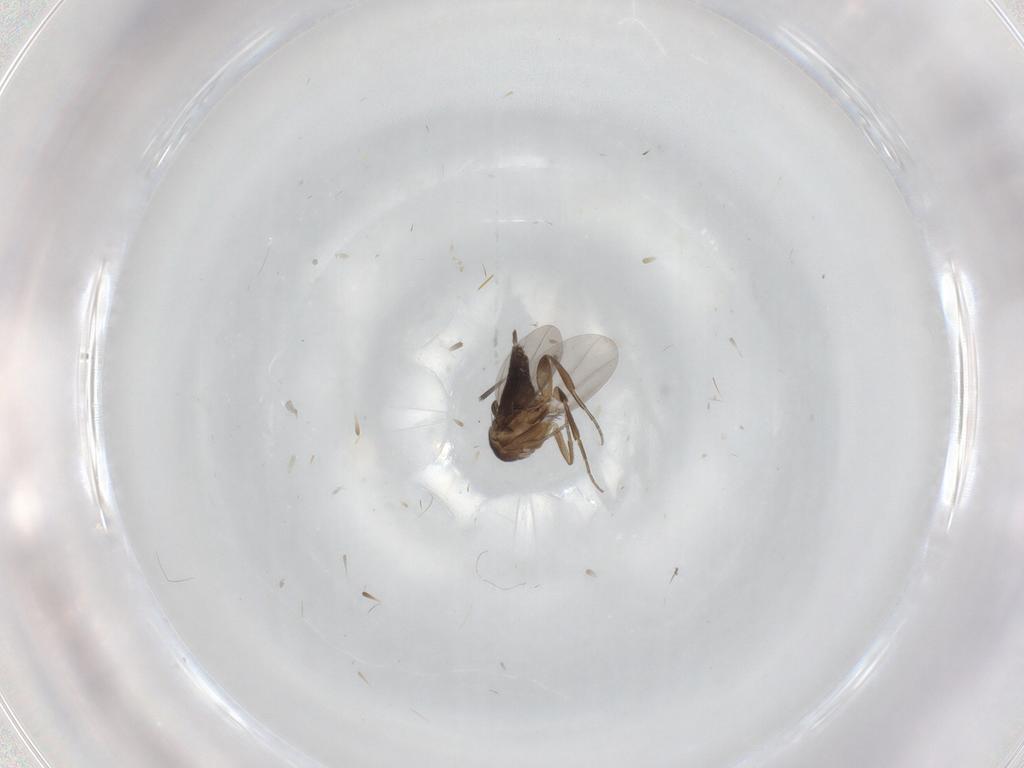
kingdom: Animalia
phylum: Arthropoda
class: Insecta
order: Diptera
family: Phoridae
